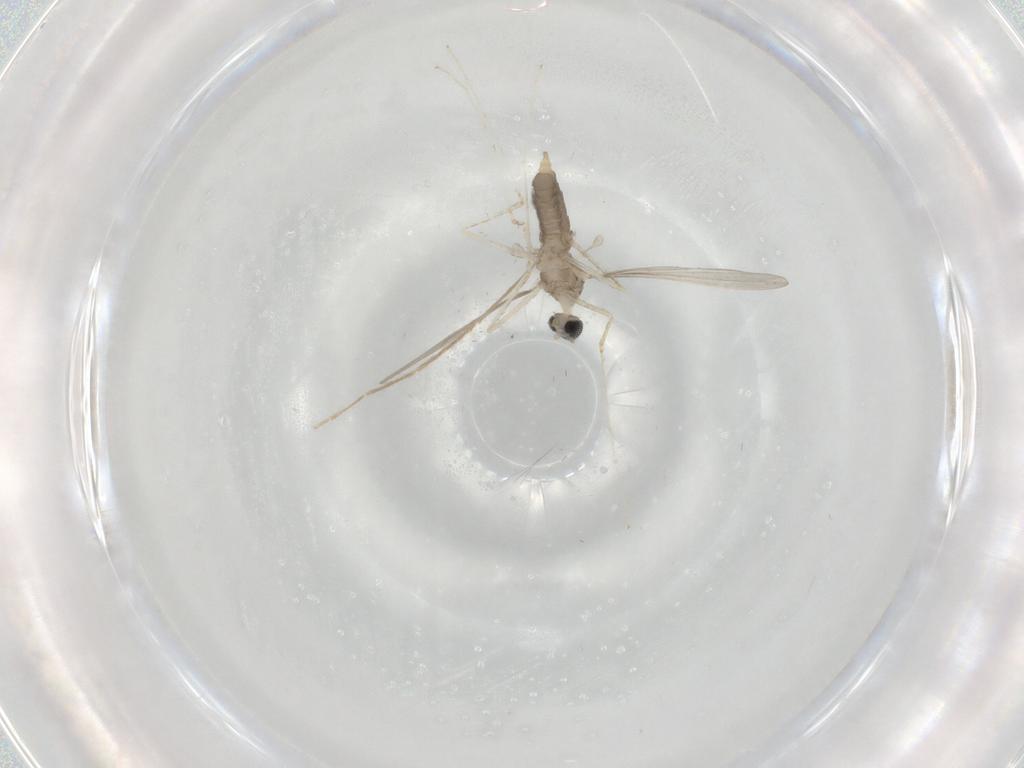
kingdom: Animalia
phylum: Arthropoda
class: Insecta
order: Diptera
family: Cecidomyiidae
